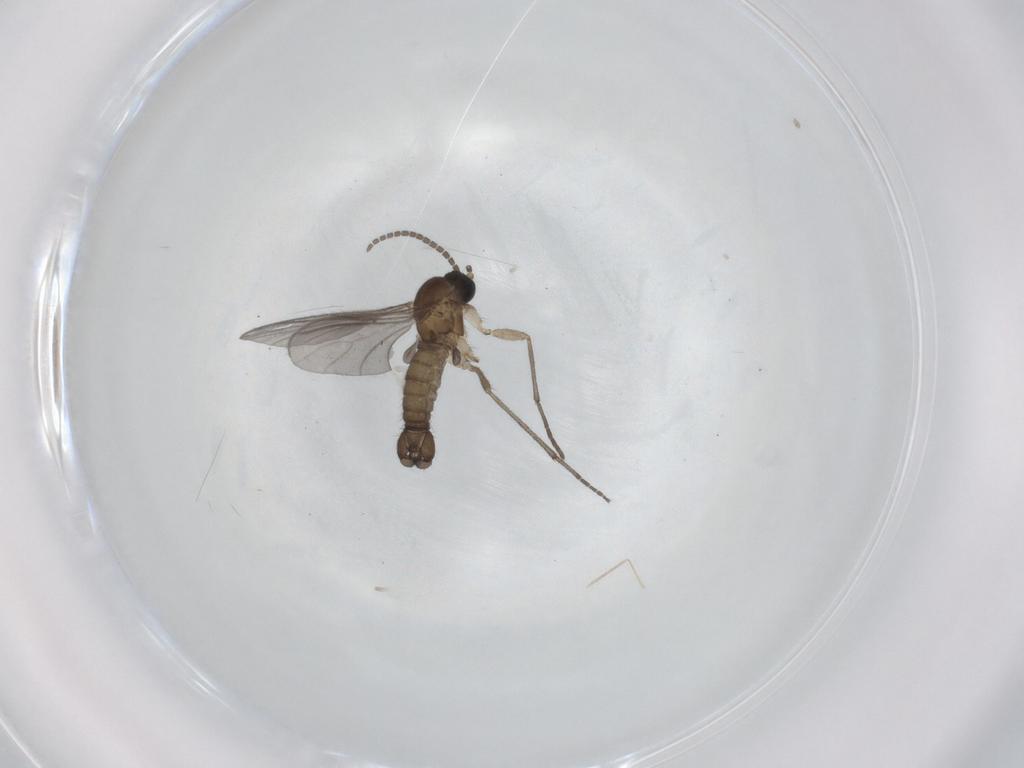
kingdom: Animalia
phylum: Arthropoda
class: Insecta
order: Diptera
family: Sciaridae
